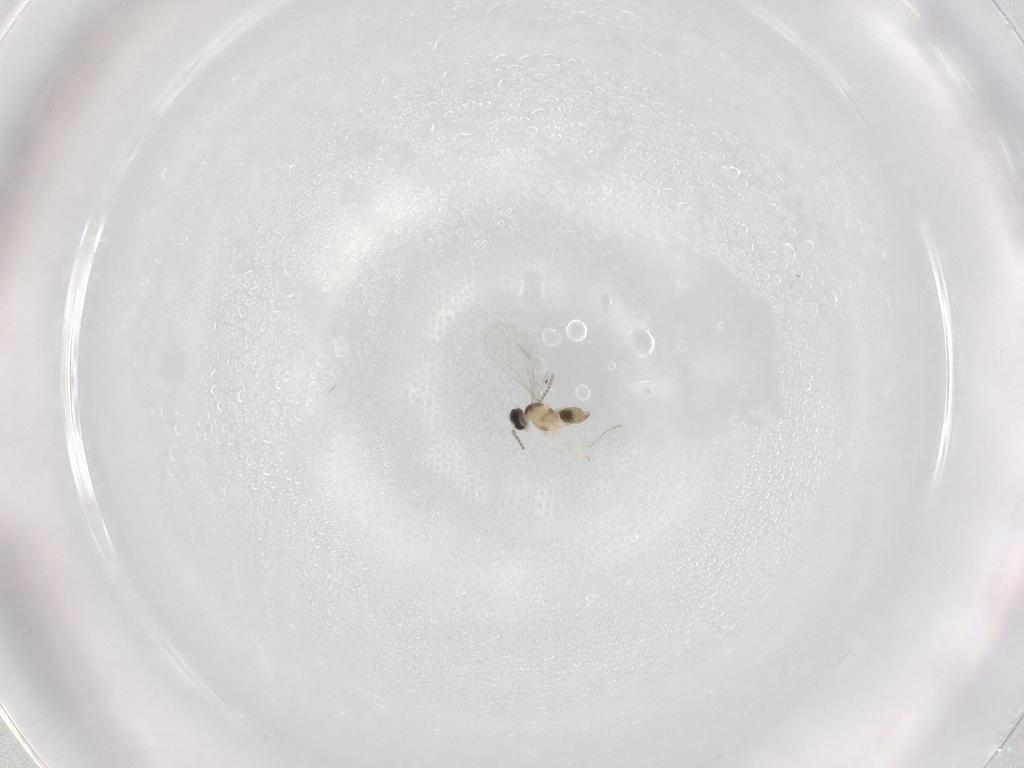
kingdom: Animalia
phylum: Arthropoda
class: Insecta
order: Diptera
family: Cecidomyiidae
